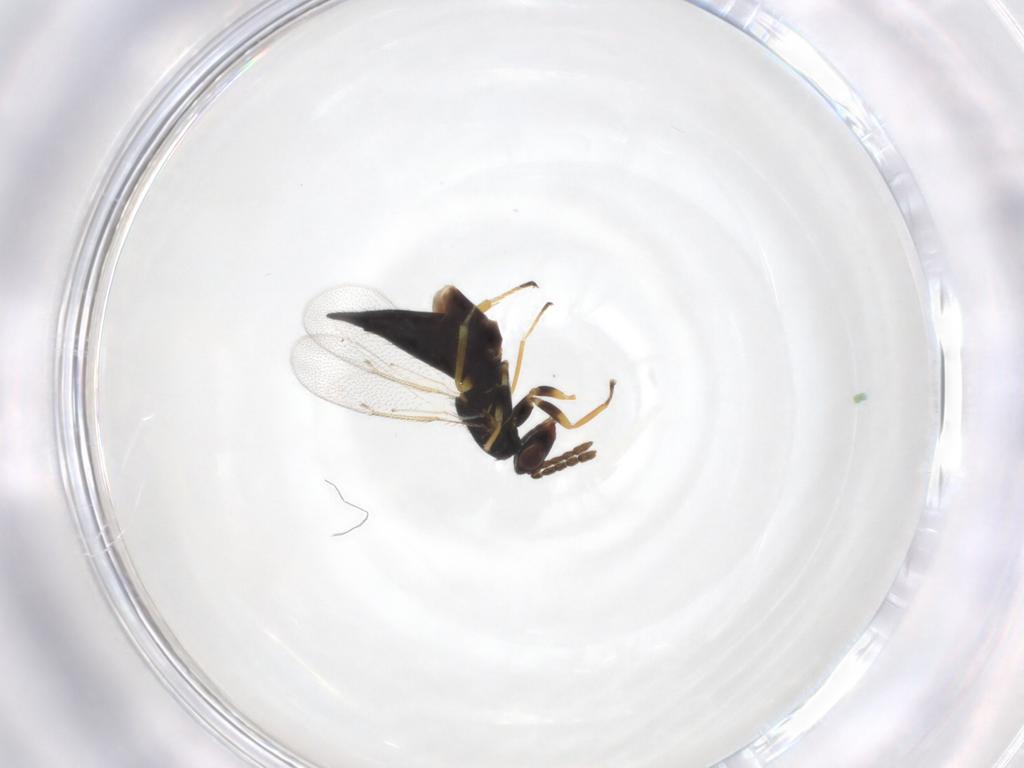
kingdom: Animalia
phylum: Arthropoda
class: Insecta
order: Hymenoptera
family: Eulophidae
